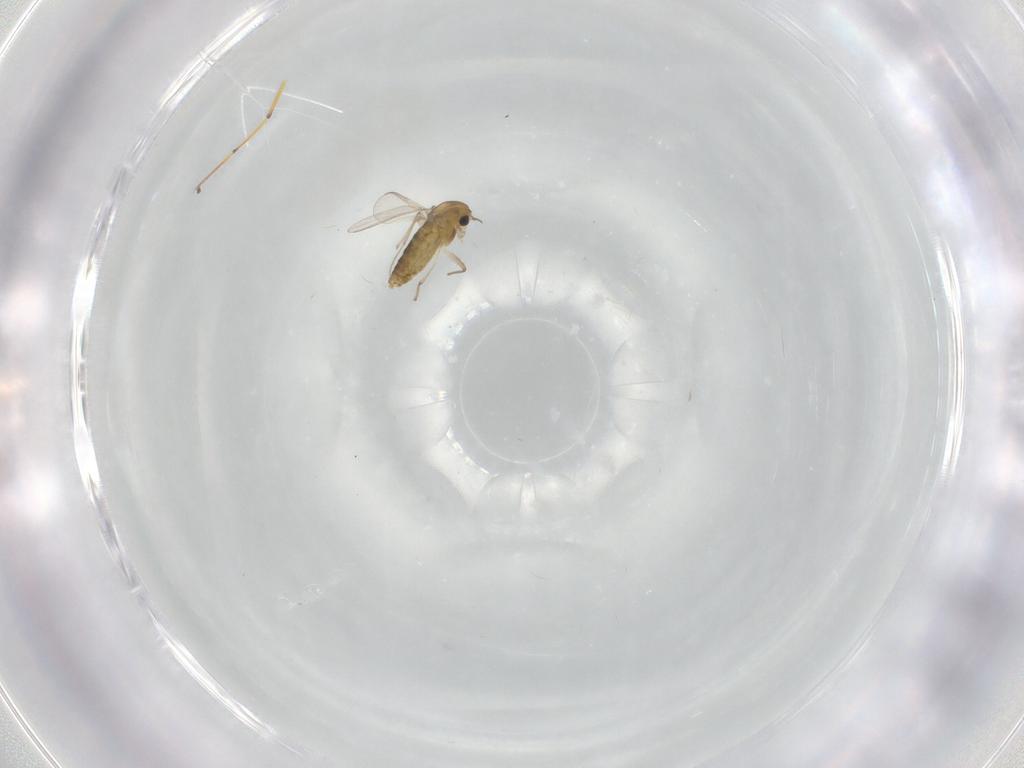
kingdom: Animalia
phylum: Arthropoda
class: Insecta
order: Diptera
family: Chironomidae
